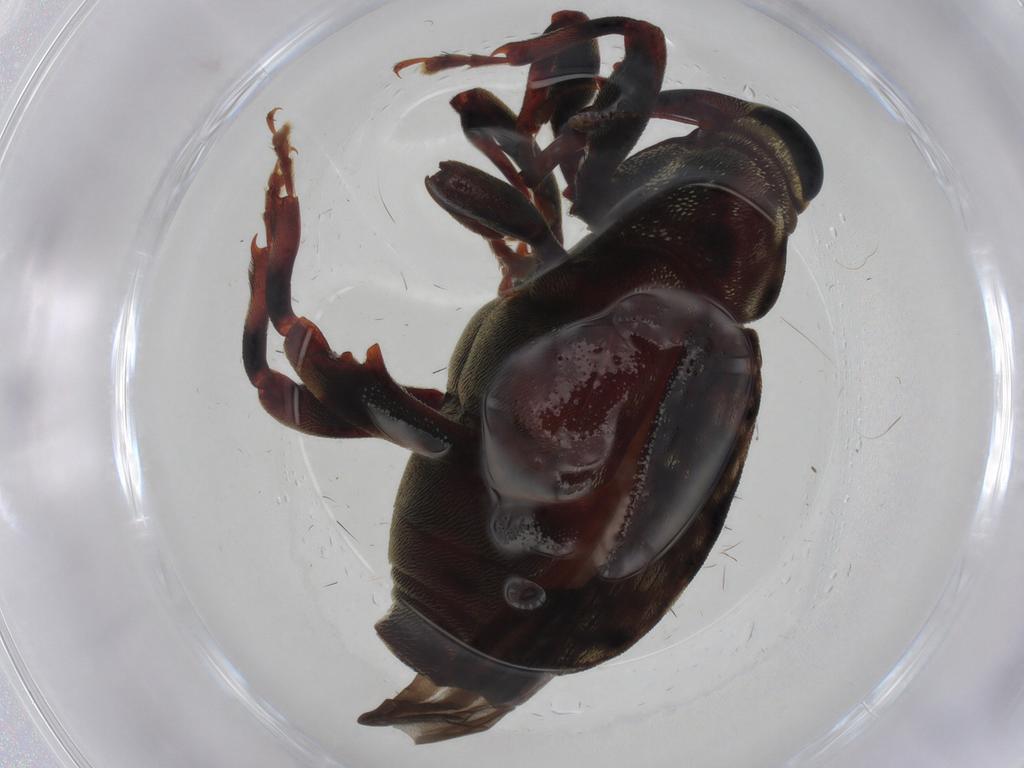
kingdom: Animalia
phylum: Arthropoda
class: Insecta
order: Coleoptera
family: Curculionidae
